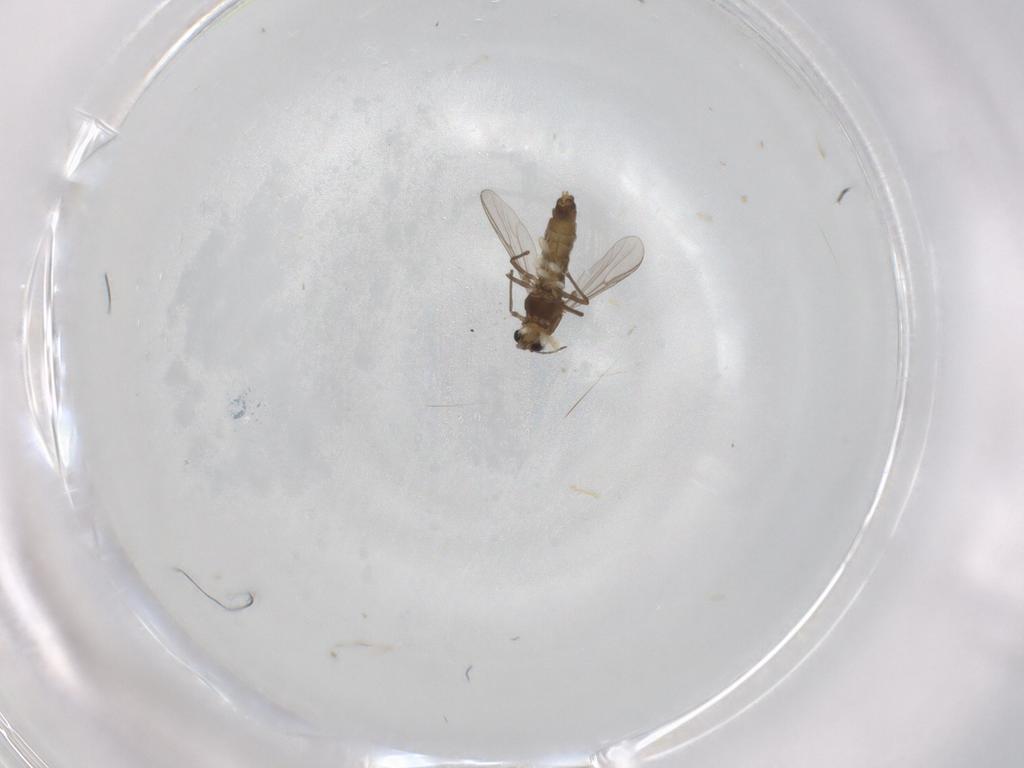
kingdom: Animalia
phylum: Arthropoda
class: Insecta
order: Diptera
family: Chironomidae
